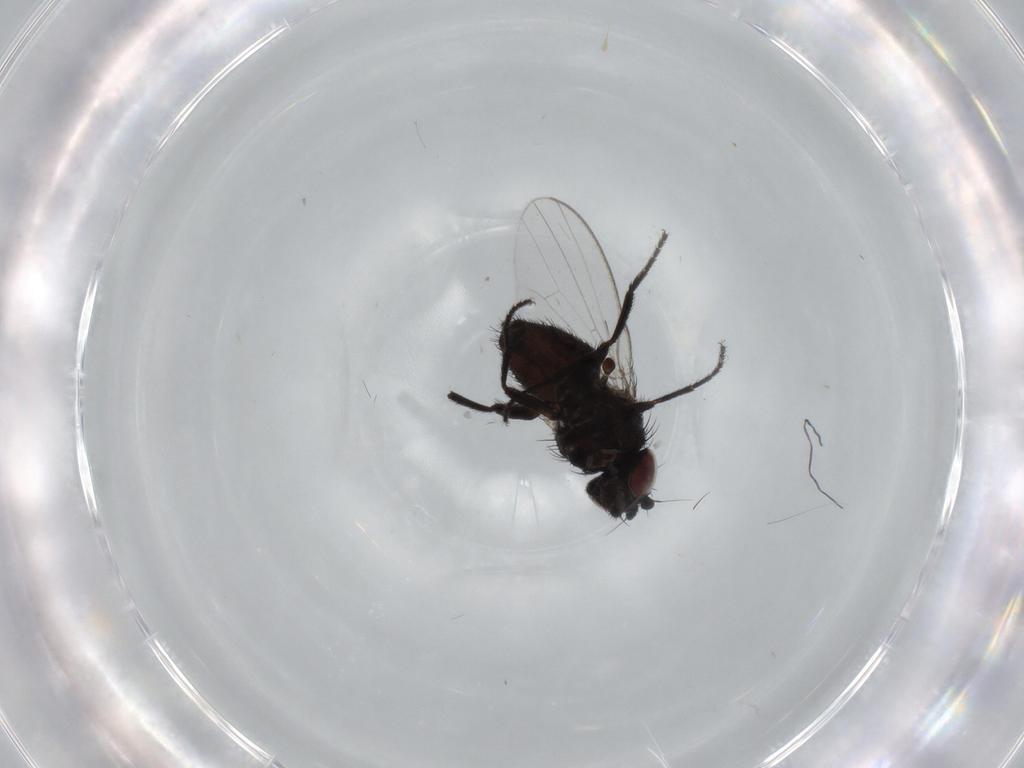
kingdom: Animalia
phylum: Arthropoda
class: Insecta
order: Diptera
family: Milichiidae
